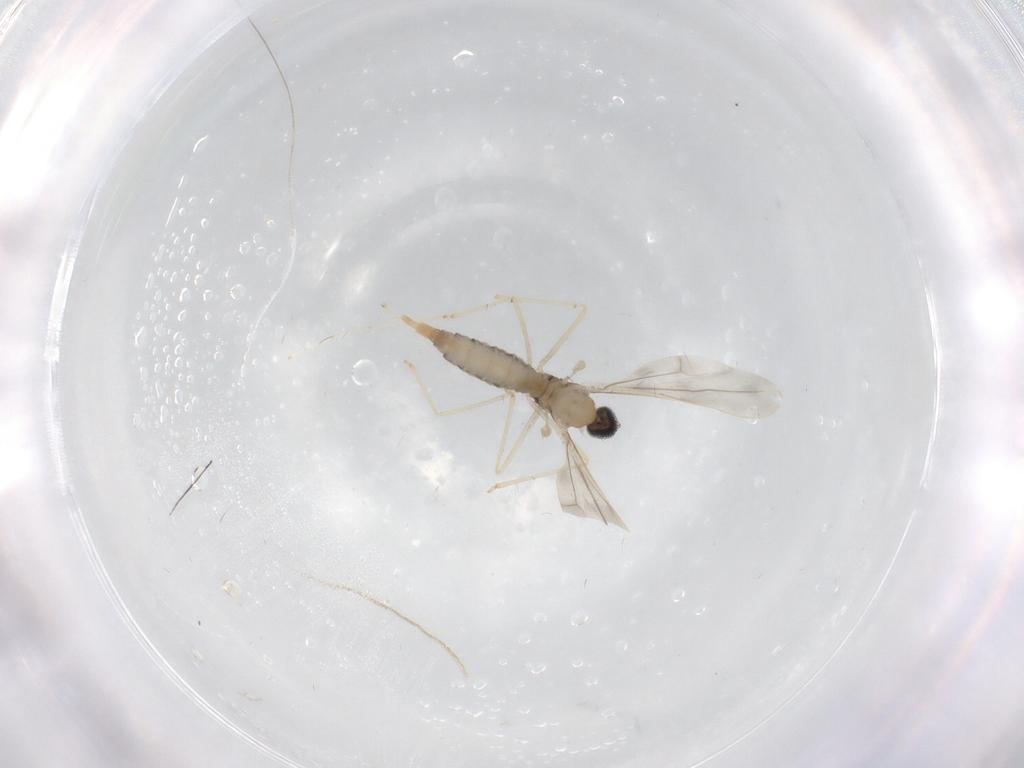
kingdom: Animalia
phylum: Arthropoda
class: Insecta
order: Diptera
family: Cecidomyiidae
